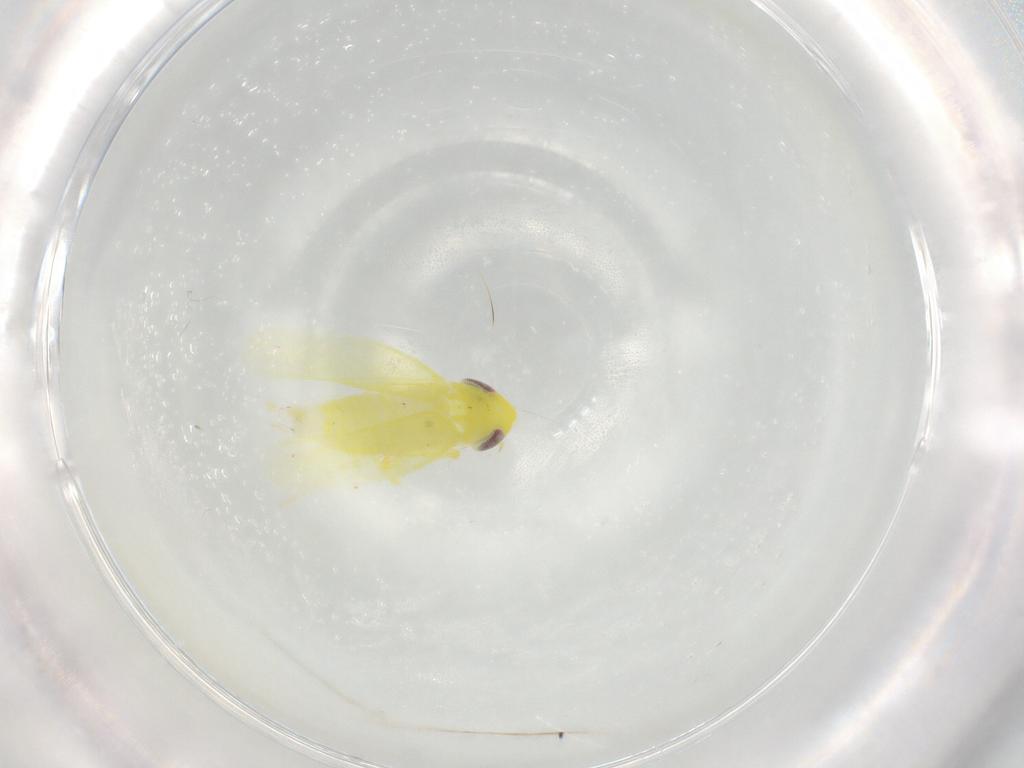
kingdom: Animalia
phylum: Arthropoda
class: Insecta
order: Hemiptera
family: Cicadellidae
